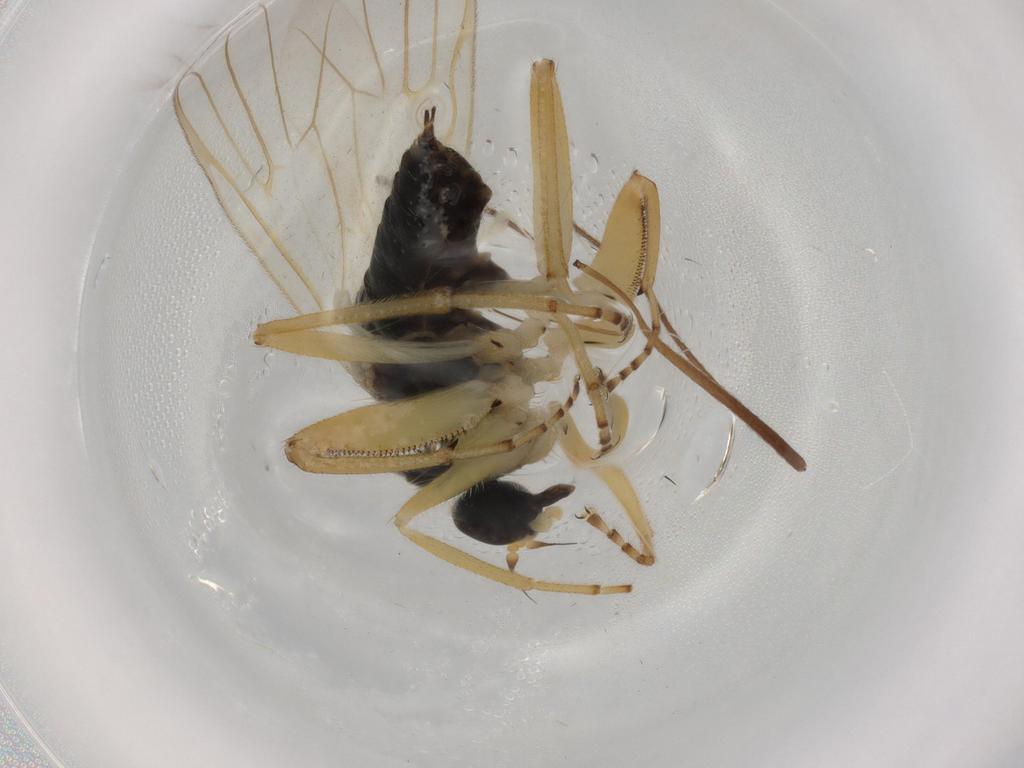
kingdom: Animalia
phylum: Arthropoda
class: Insecta
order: Diptera
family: Hybotidae
